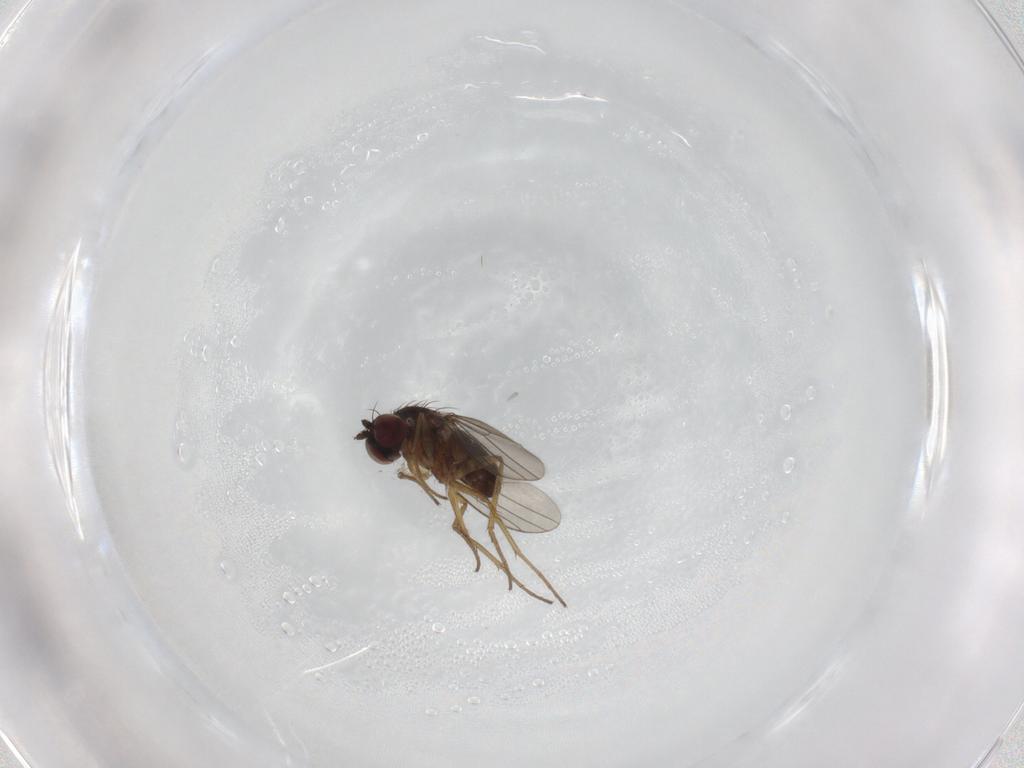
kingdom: Animalia
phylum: Arthropoda
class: Insecta
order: Diptera
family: Dolichopodidae
